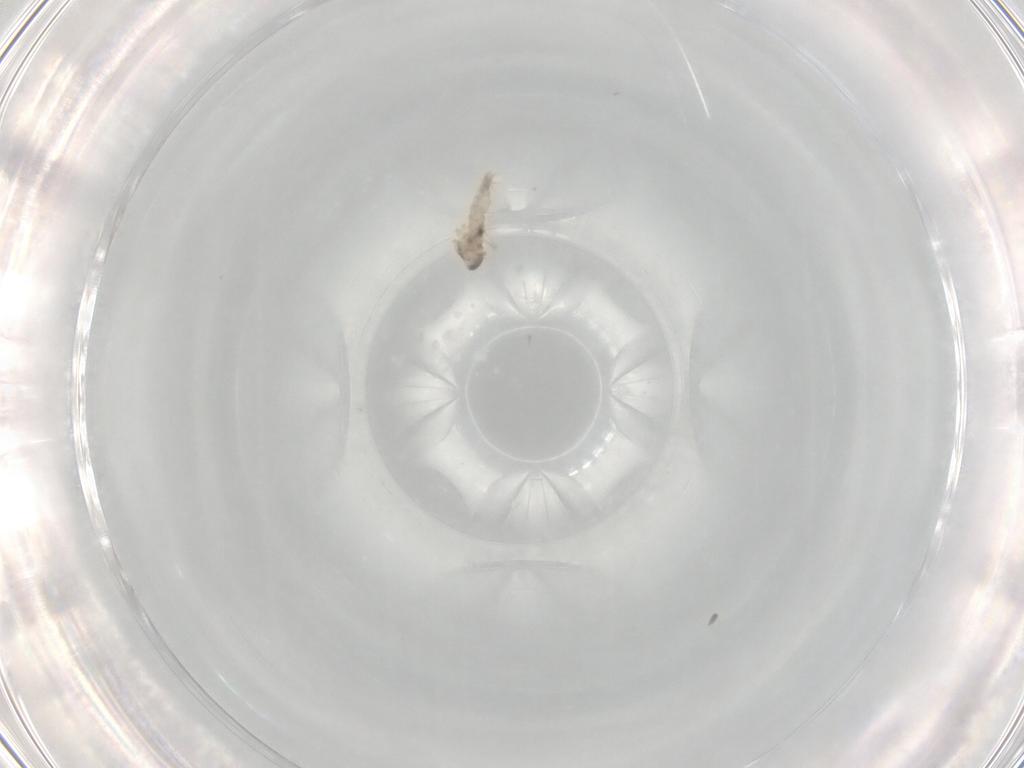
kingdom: Animalia
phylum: Arthropoda
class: Insecta
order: Diptera
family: Cecidomyiidae
